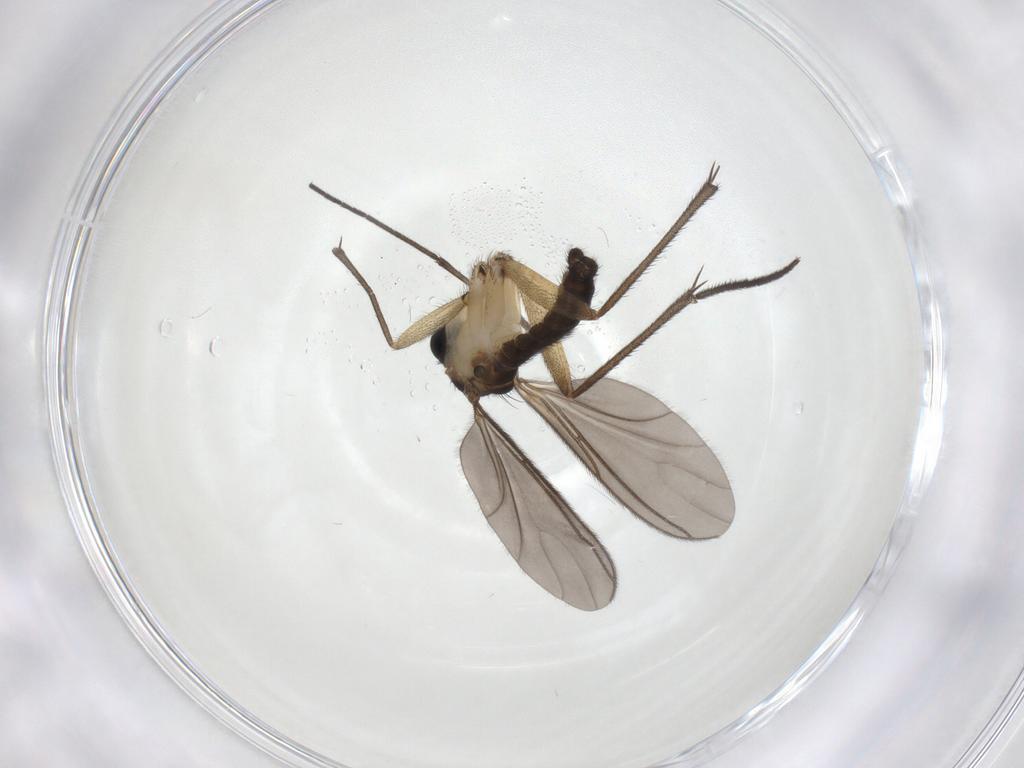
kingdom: Animalia
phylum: Arthropoda
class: Insecta
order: Diptera
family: Sciaridae
